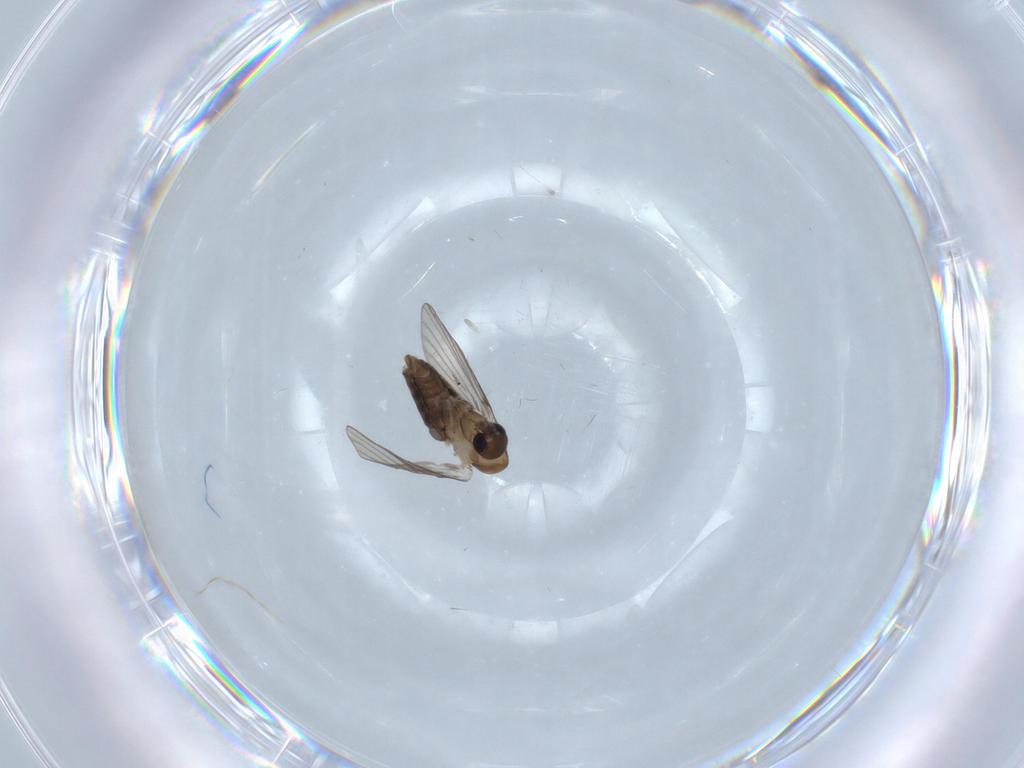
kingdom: Animalia
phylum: Arthropoda
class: Insecta
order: Diptera
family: Psychodidae
